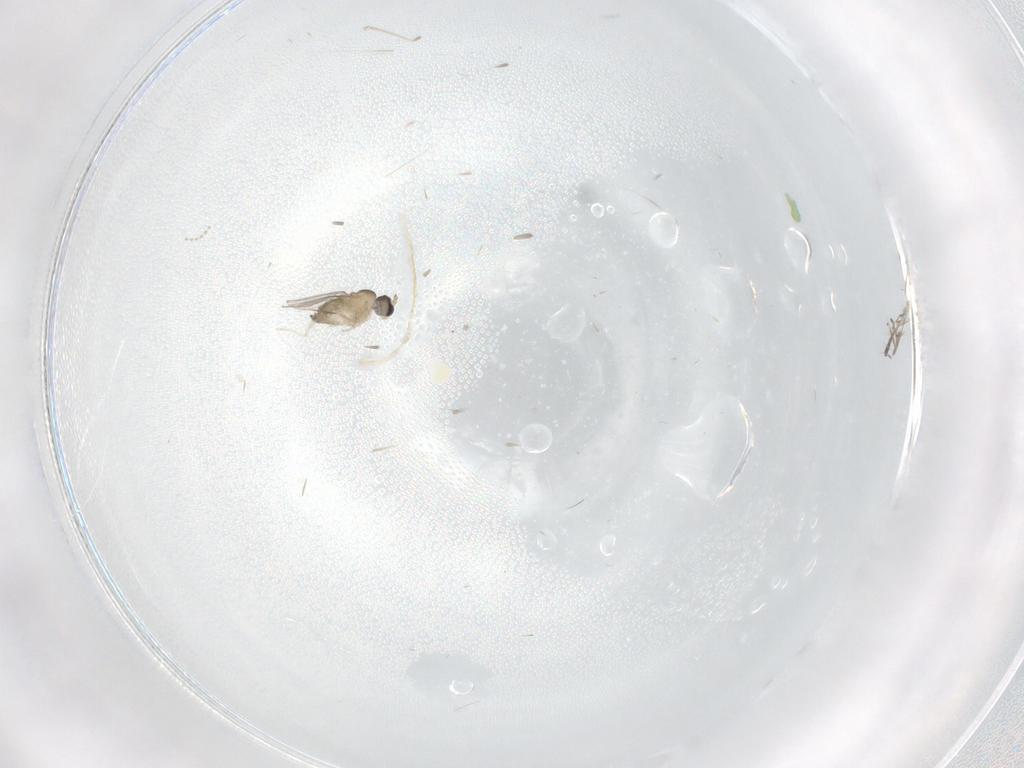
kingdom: Animalia
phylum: Arthropoda
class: Insecta
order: Diptera
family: Cecidomyiidae
